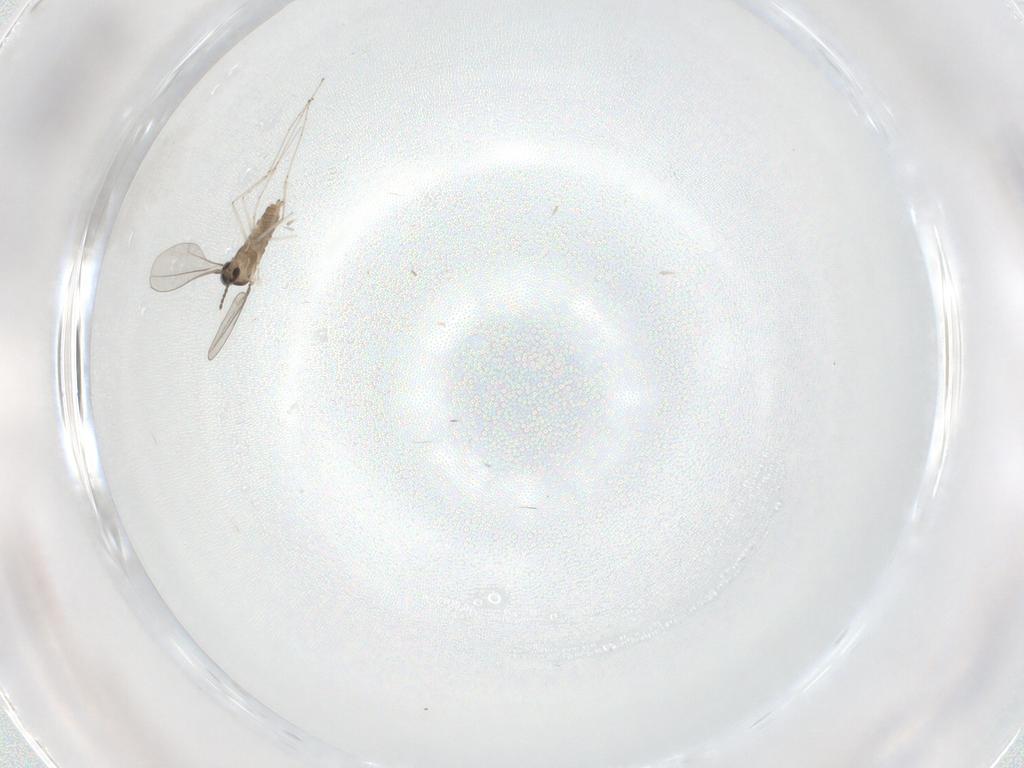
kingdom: Animalia
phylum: Arthropoda
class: Insecta
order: Diptera
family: Cecidomyiidae
